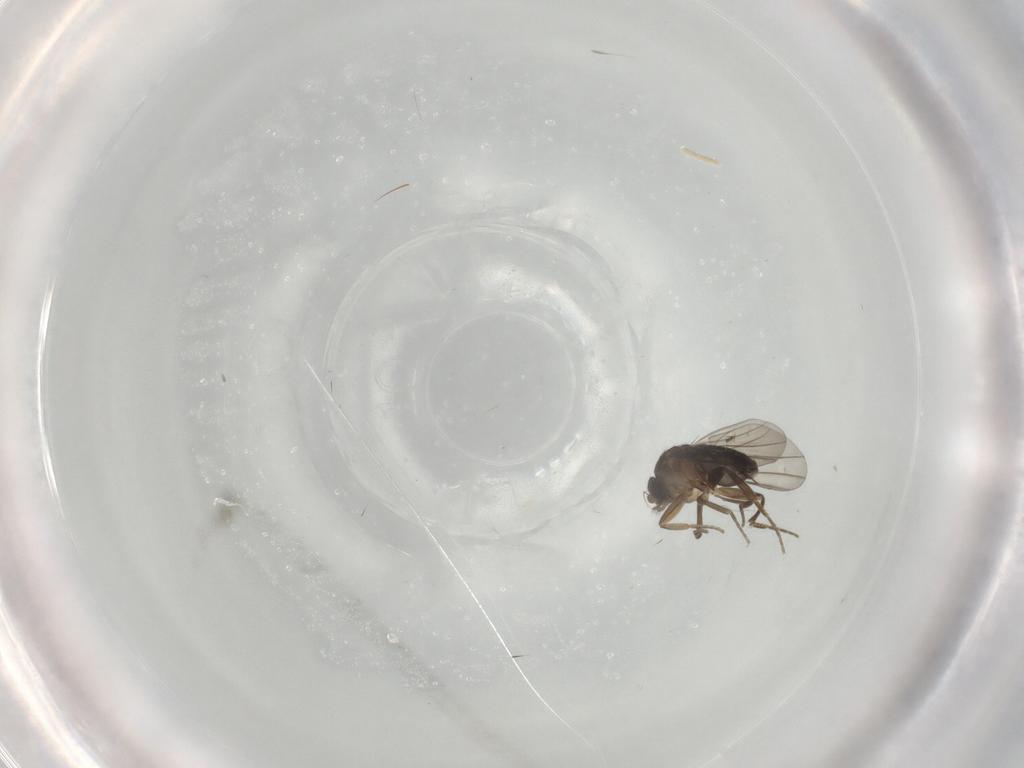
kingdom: Animalia
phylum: Arthropoda
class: Insecta
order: Diptera
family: Phoridae
